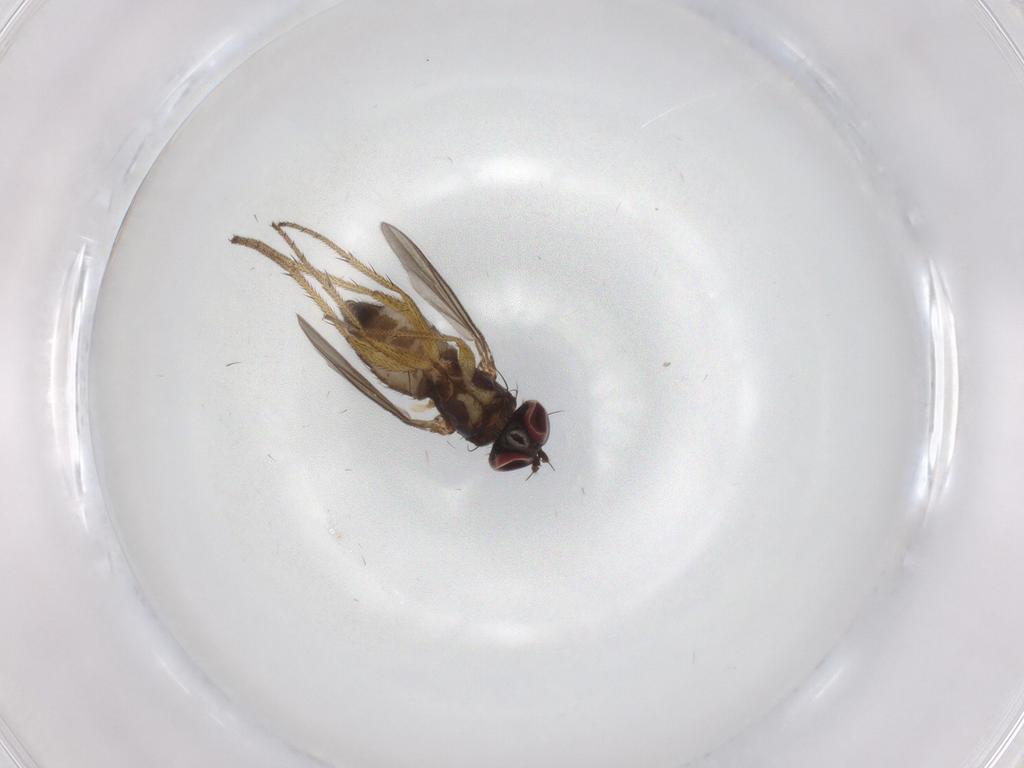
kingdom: Animalia
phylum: Arthropoda
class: Insecta
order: Diptera
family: Dolichopodidae
